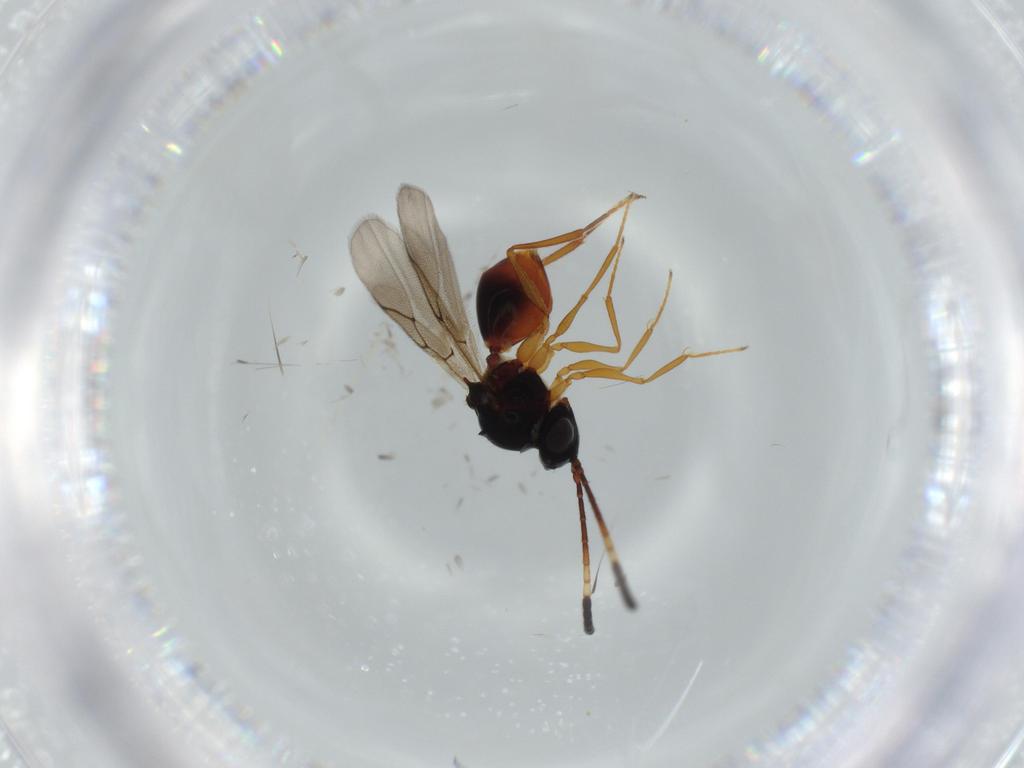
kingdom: Animalia
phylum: Arthropoda
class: Insecta
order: Hymenoptera
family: Figitidae
